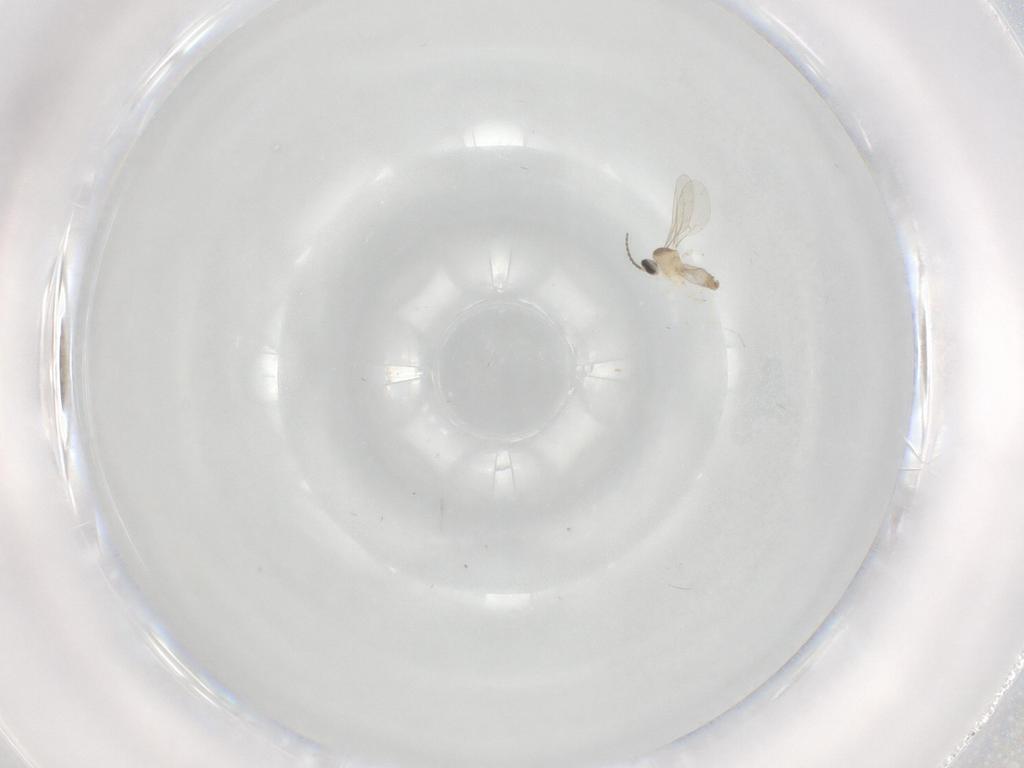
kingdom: Animalia
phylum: Arthropoda
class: Insecta
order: Diptera
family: Cecidomyiidae
